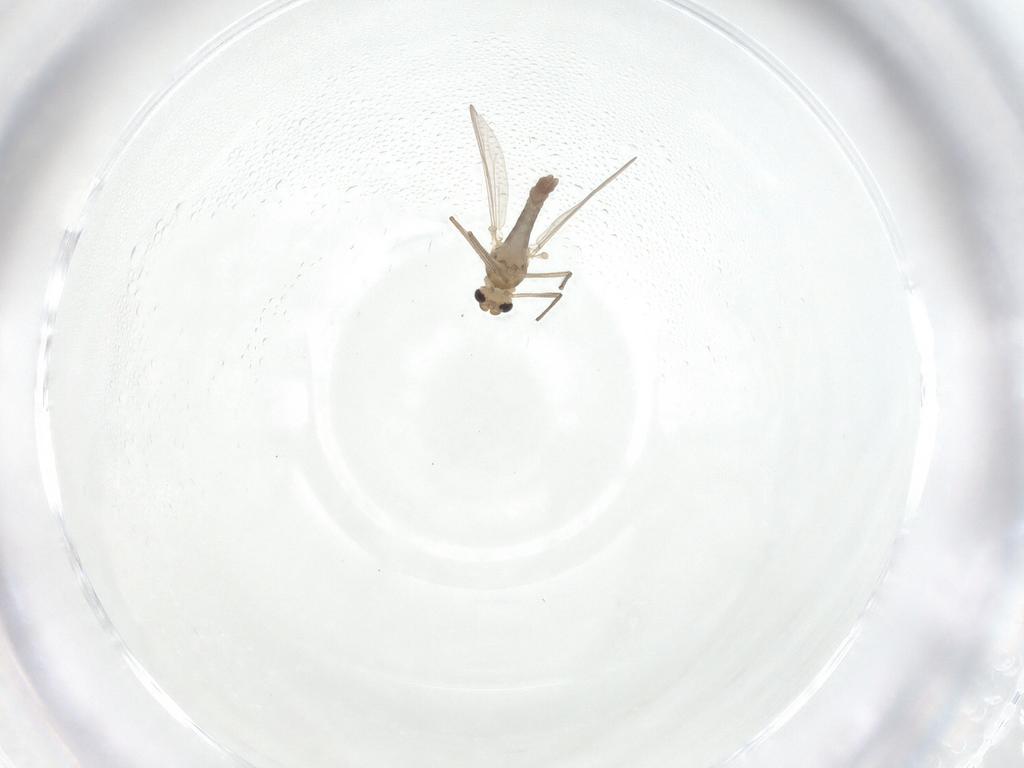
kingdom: Animalia
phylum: Arthropoda
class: Insecta
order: Diptera
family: Chironomidae
